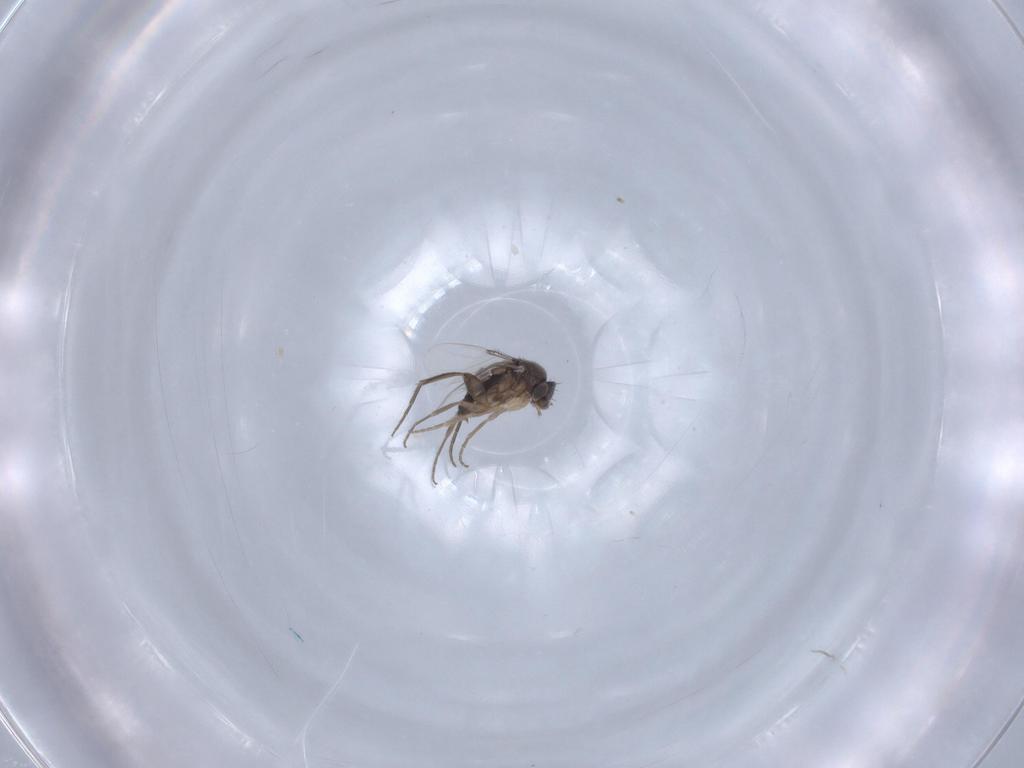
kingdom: Animalia
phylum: Arthropoda
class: Insecta
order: Diptera
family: Phoridae
